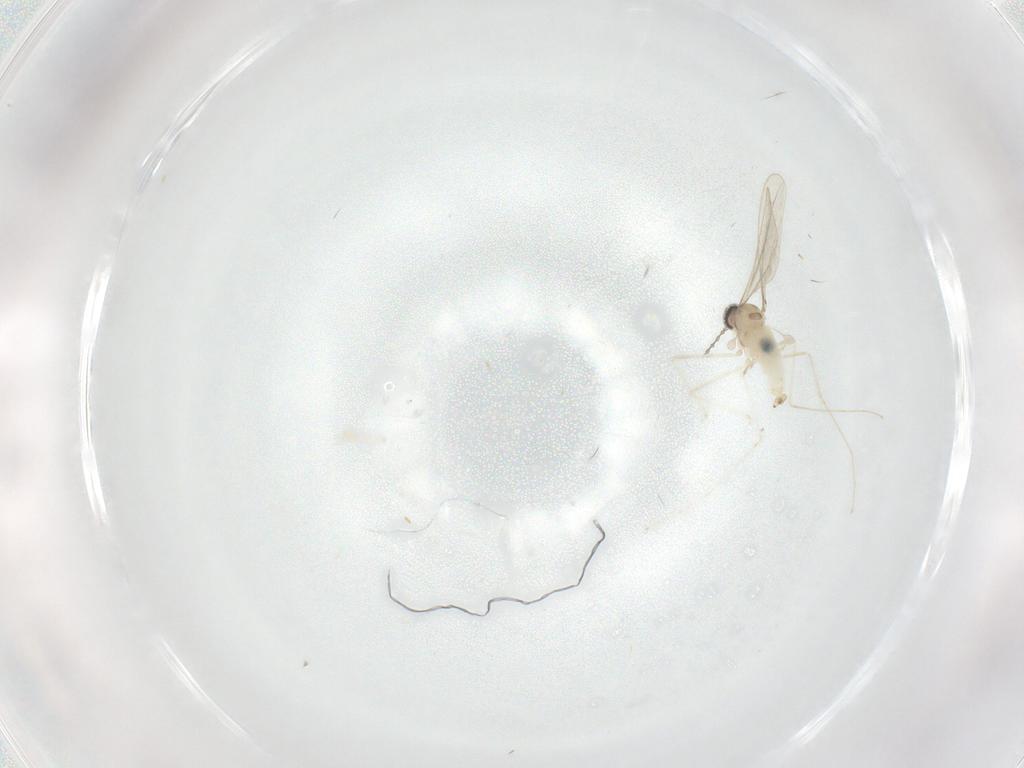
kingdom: Animalia
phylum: Arthropoda
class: Insecta
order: Diptera
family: Cecidomyiidae
